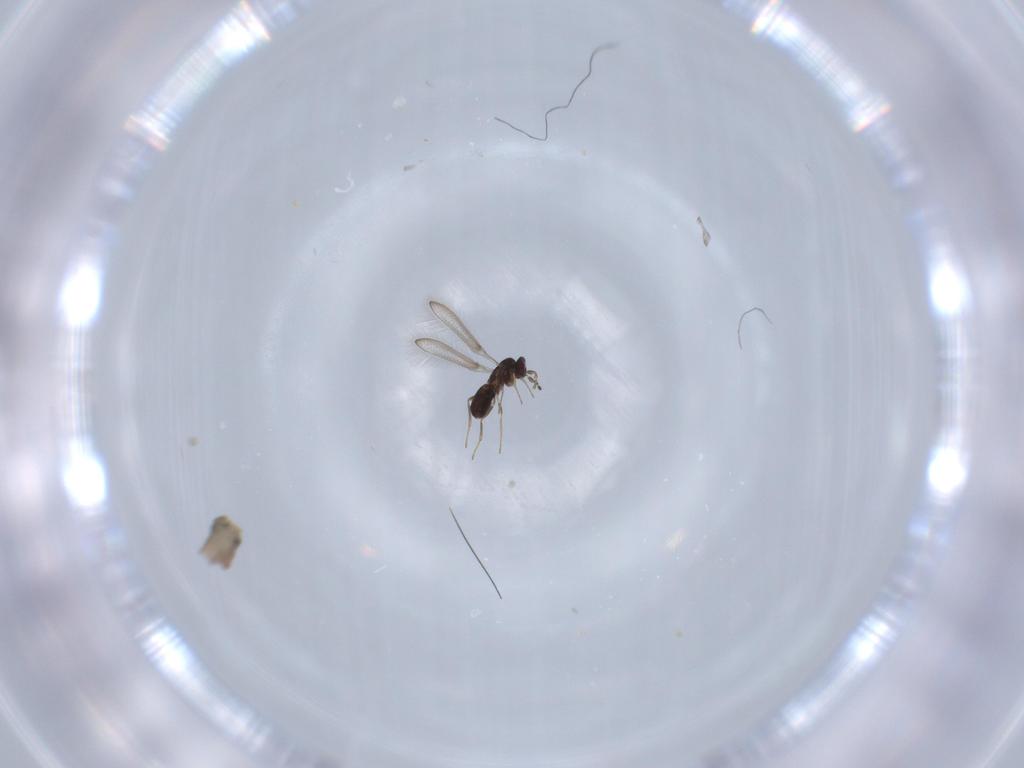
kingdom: Animalia
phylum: Arthropoda
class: Insecta
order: Hymenoptera
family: Mymaridae
